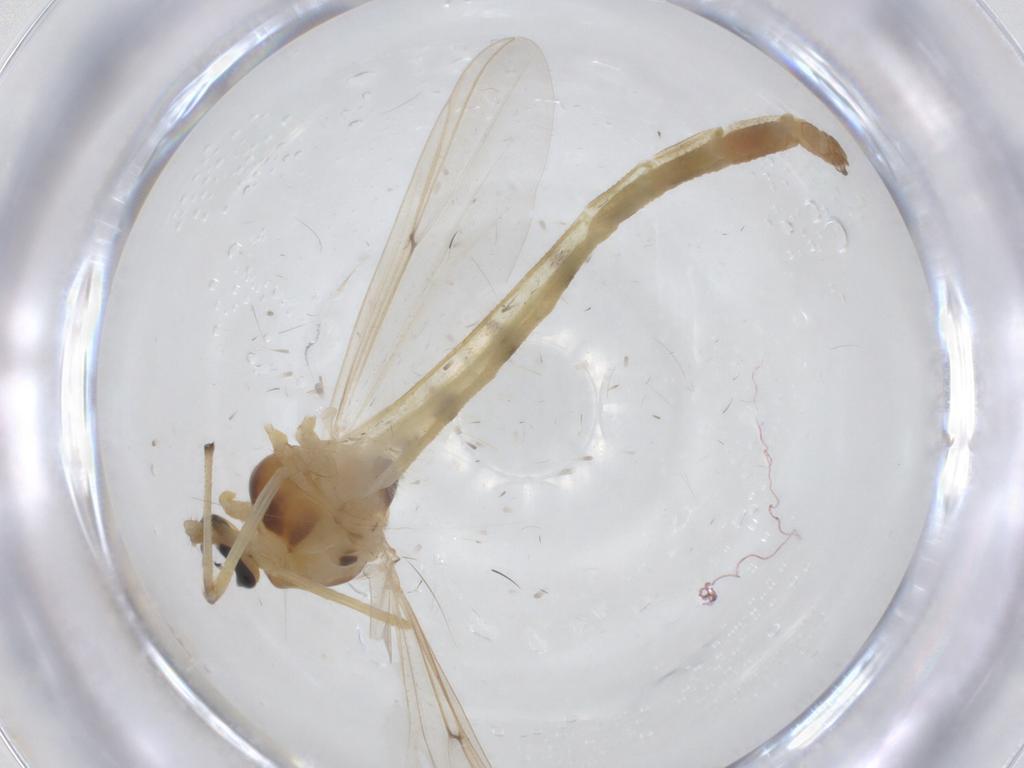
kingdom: Animalia
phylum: Arthropoda
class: Insecta
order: Diptera
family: Chironomidae
